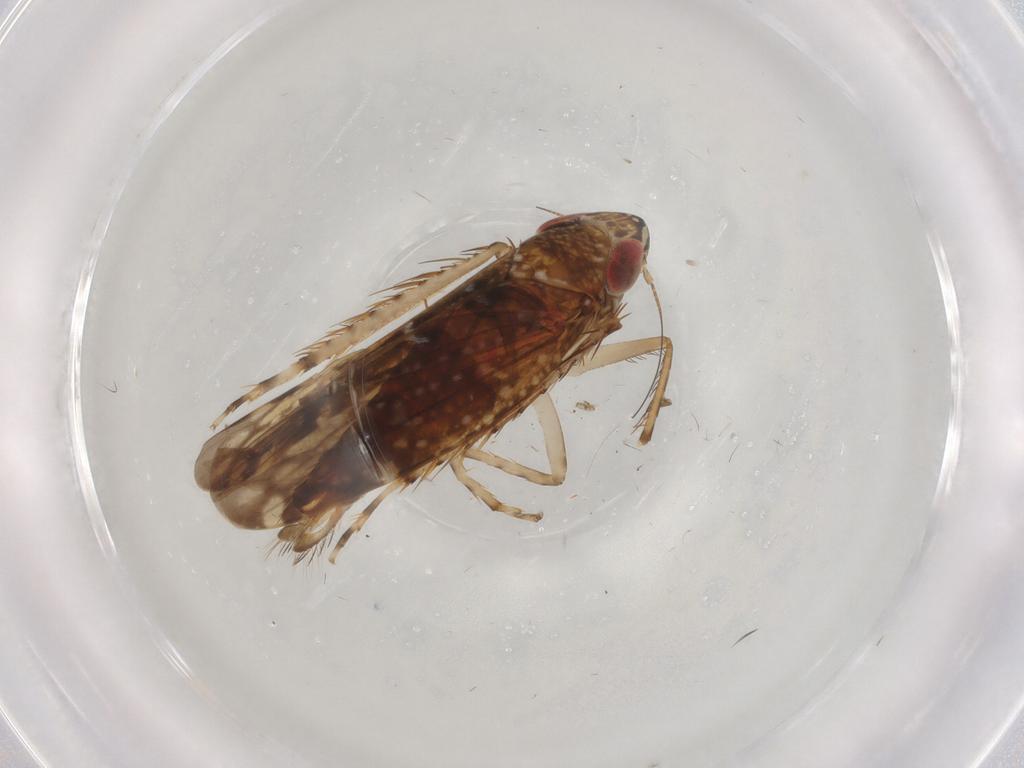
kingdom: Animalia
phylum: Arthropoda
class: Insecta
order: Hemiptera
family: Cicadellidae
